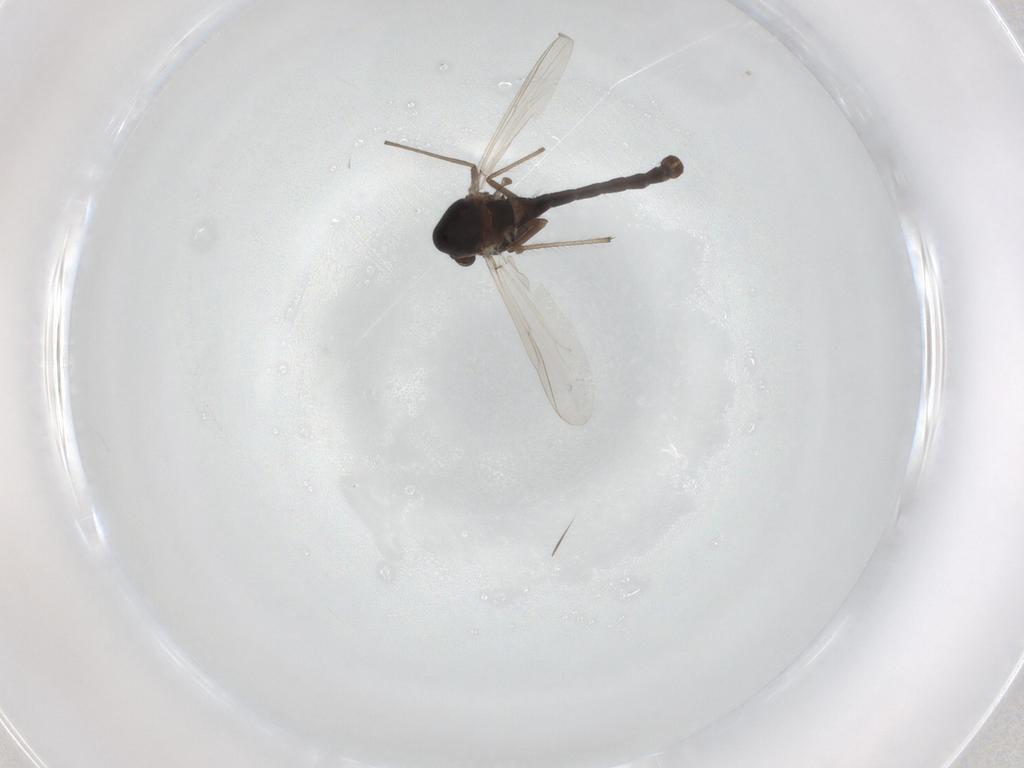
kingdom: Animalia
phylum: Arthropoda
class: Insecta
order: Diptera
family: Chironomidae
